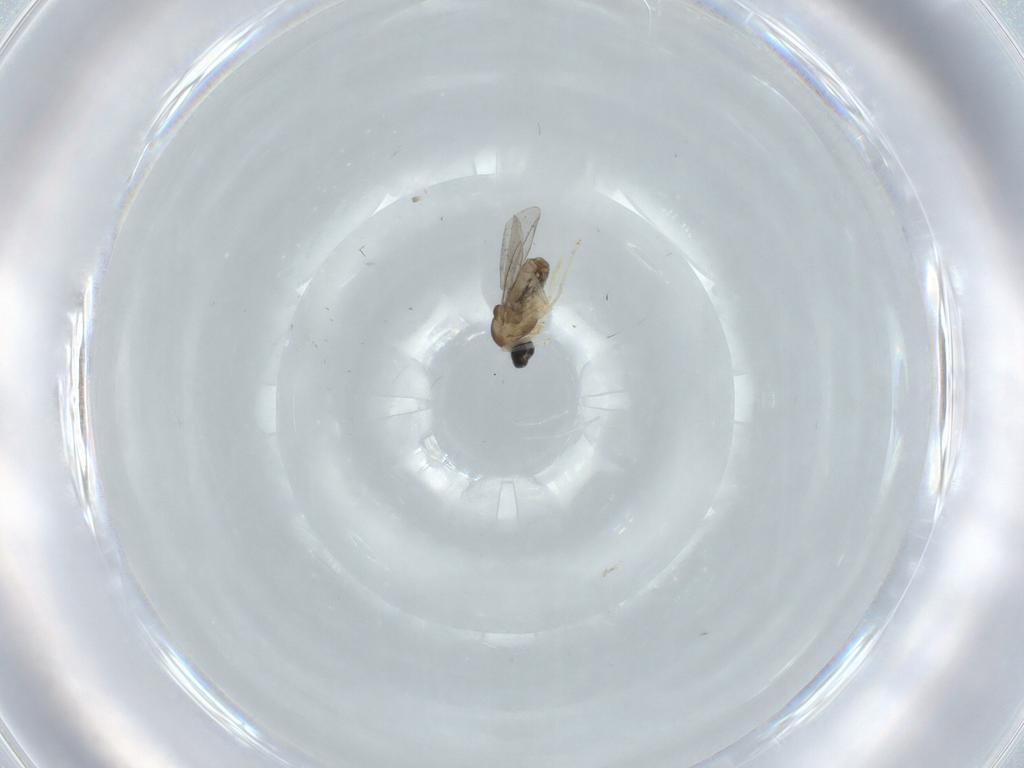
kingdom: Animalia
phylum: Arthropoda
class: Insecta
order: Diptera
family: Cecidomyiidae
